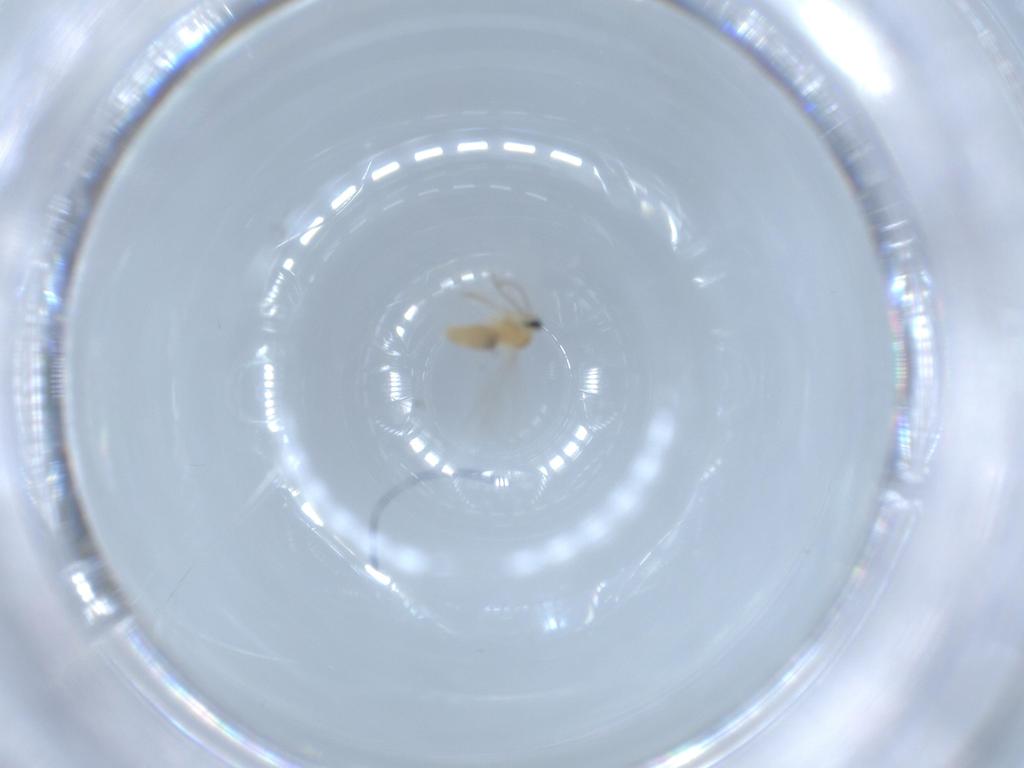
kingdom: Animalia
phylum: Arthropoda
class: Insecta
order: Diptera
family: Cecidomyiidae
